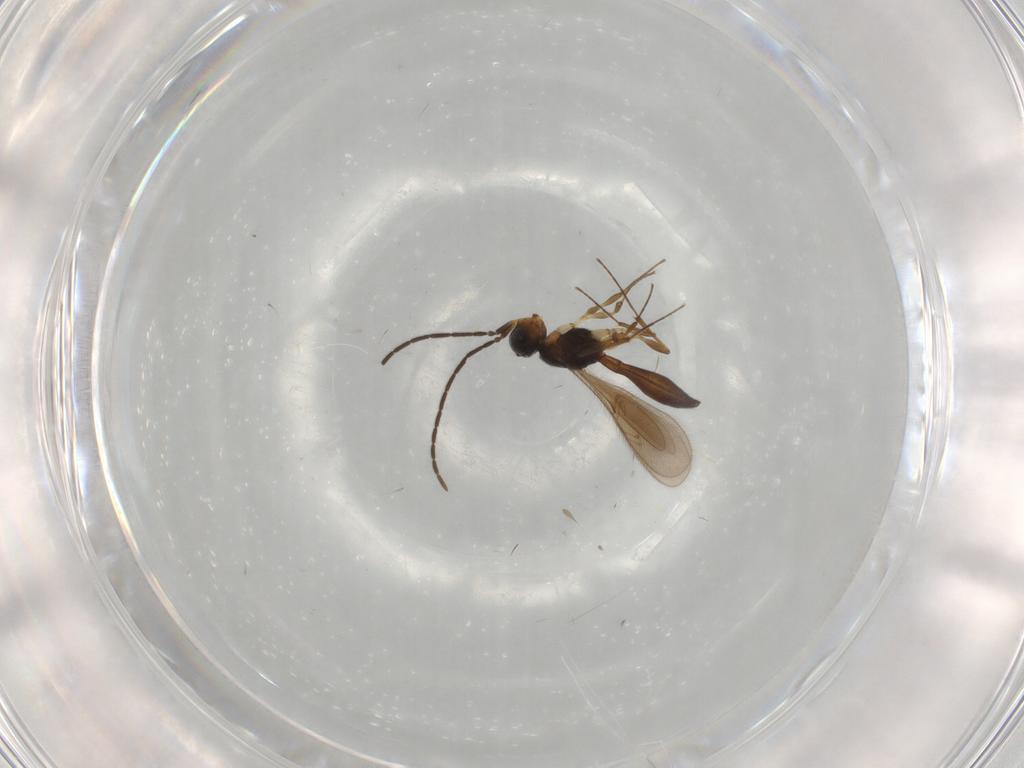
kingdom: Animalia
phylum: Arthropoda
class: Insecta
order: Hymenoptera
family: Scelionidae
